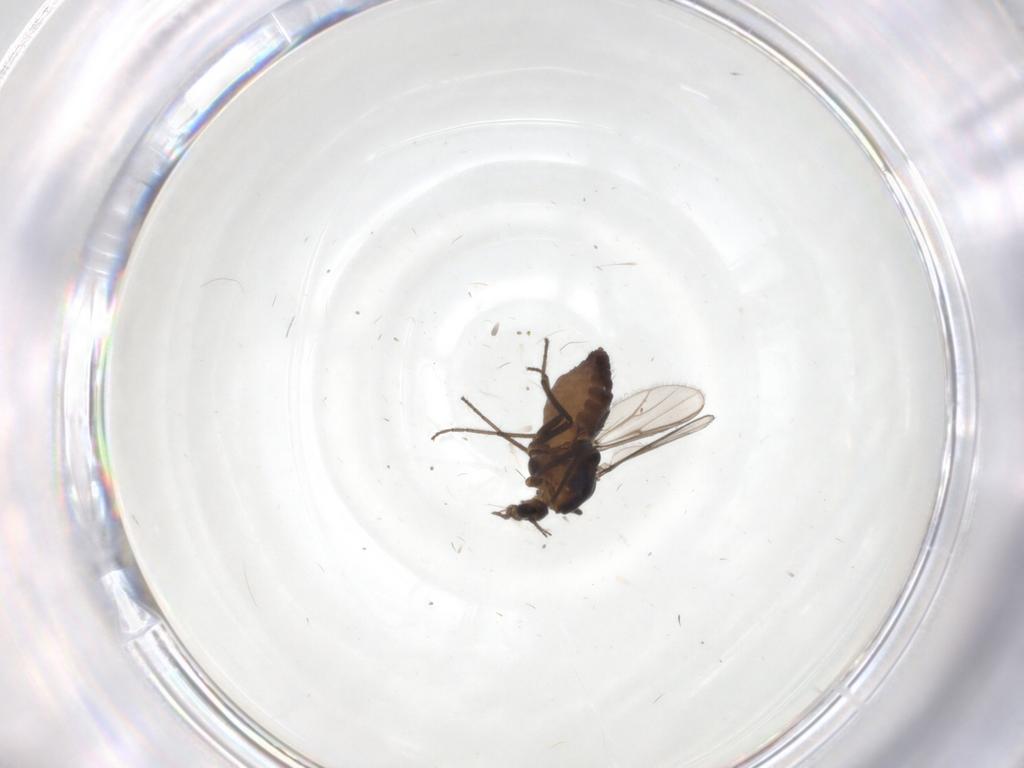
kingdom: Animalia
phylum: Arthropoda
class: Insecta
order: Diptera
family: Chironomidae
